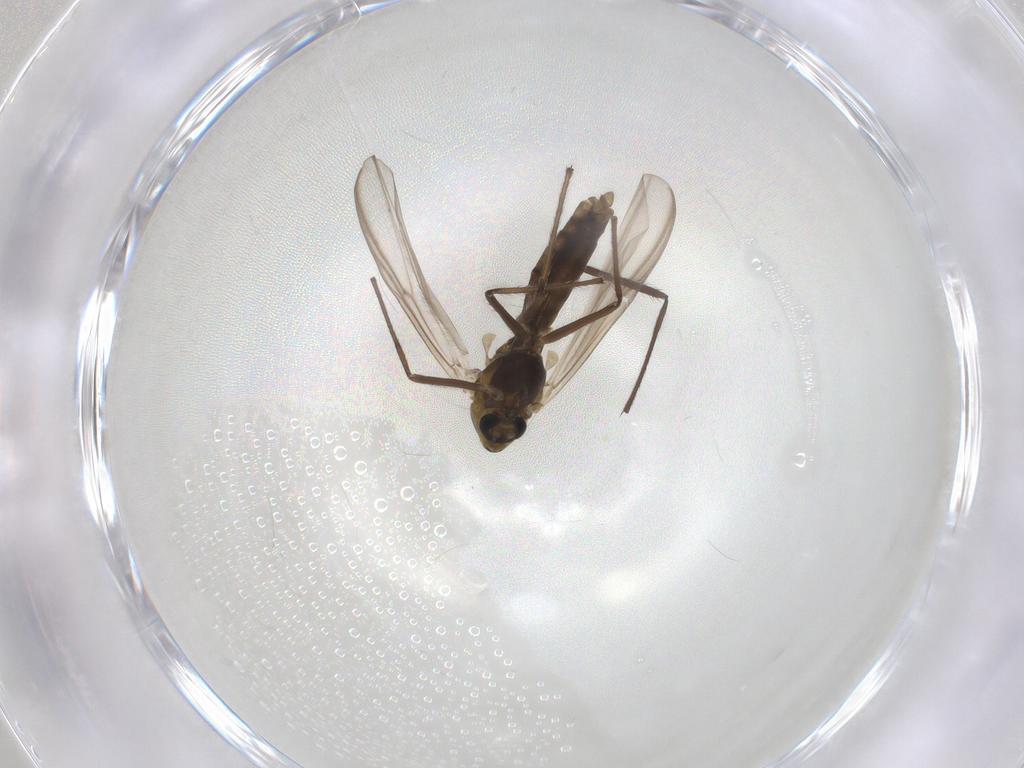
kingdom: Animalia
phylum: Arthropoda
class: Insecta
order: Diptera
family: Chironomidae
